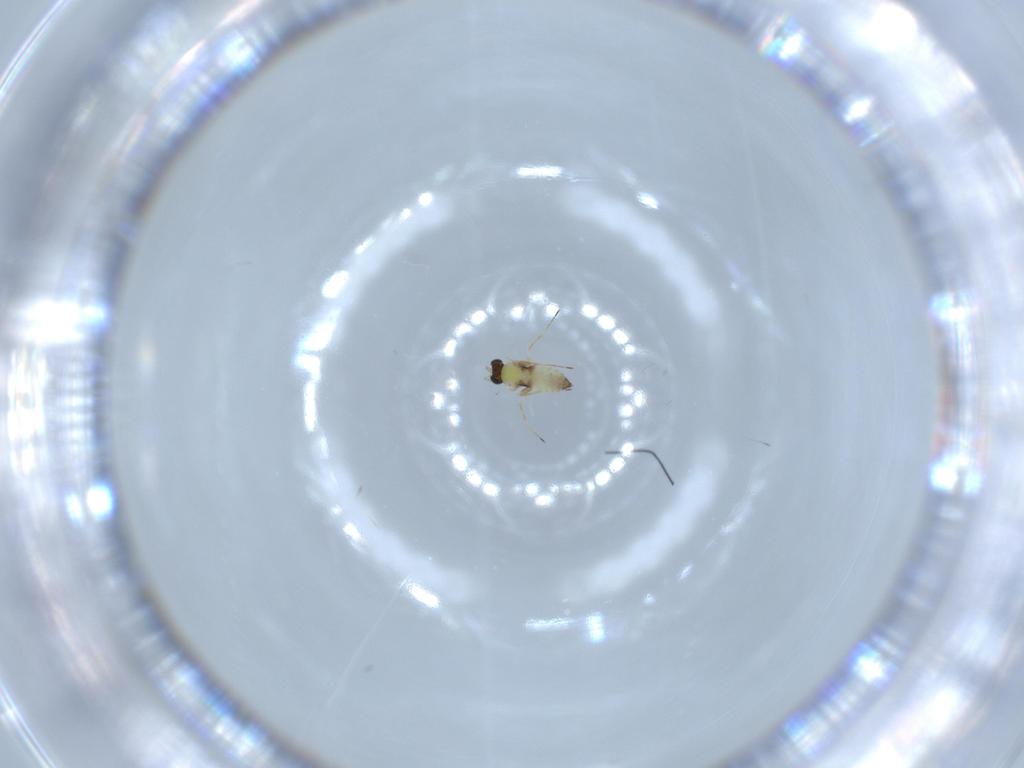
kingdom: Animalia
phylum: Arthropoda
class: Insecta
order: Hymenoptera
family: Trichogrammatidae
